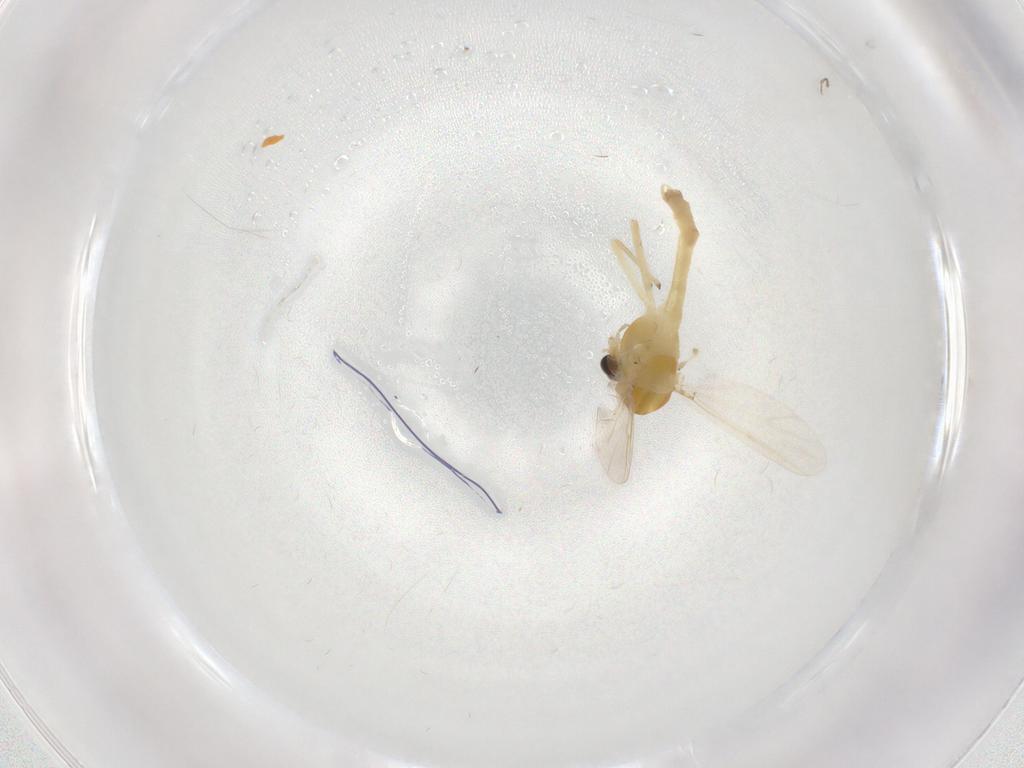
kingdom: Animalia
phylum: Arthropoda
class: Insecta
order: Diptera
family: Chironomidae
